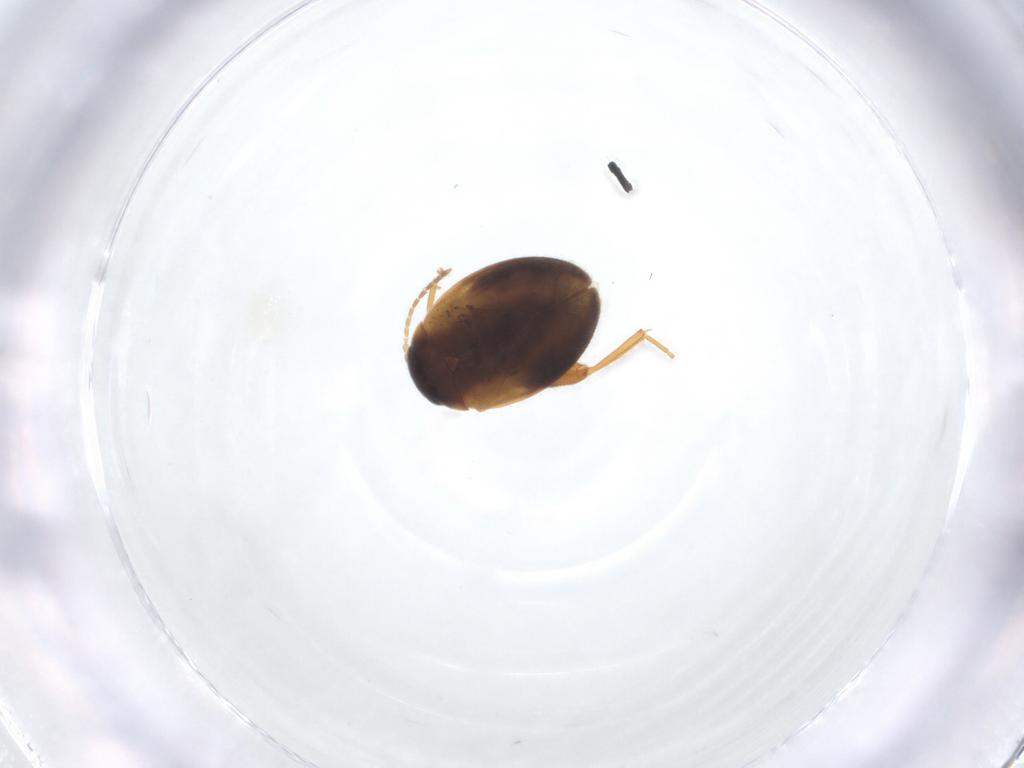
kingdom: Animalia
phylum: Arthropoda
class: Insecta
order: Coleoptera
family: Scirtidae
